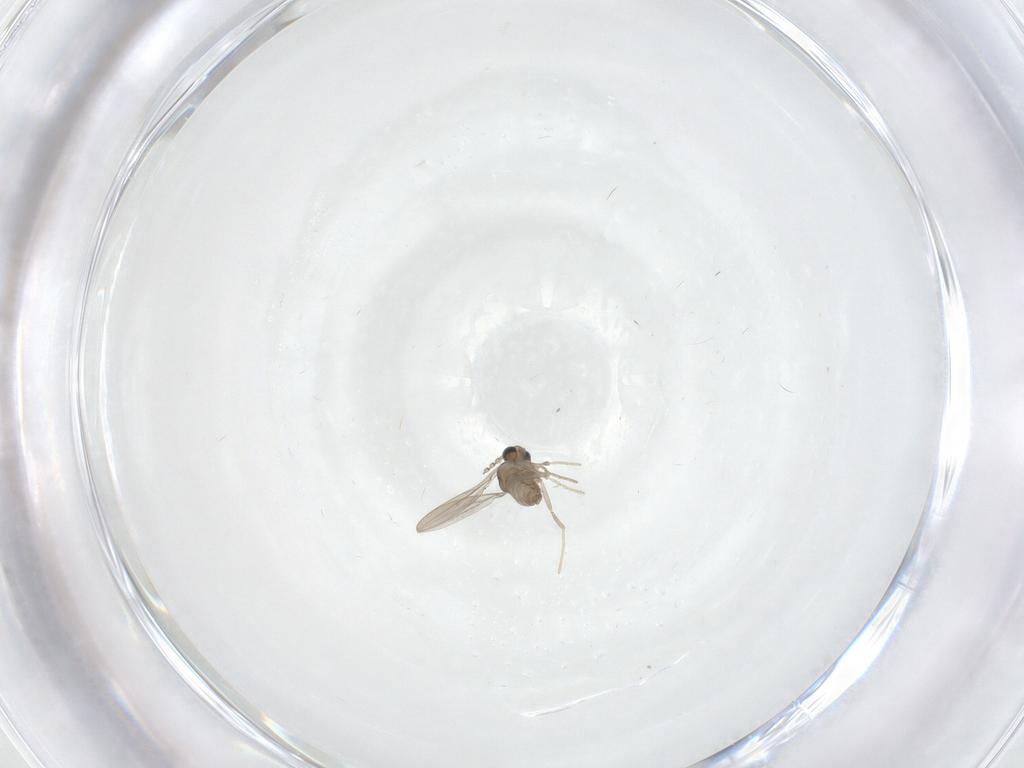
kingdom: Animalia
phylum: Arthropoda
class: Insecta
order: Diptera
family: Cecidomyiidae
